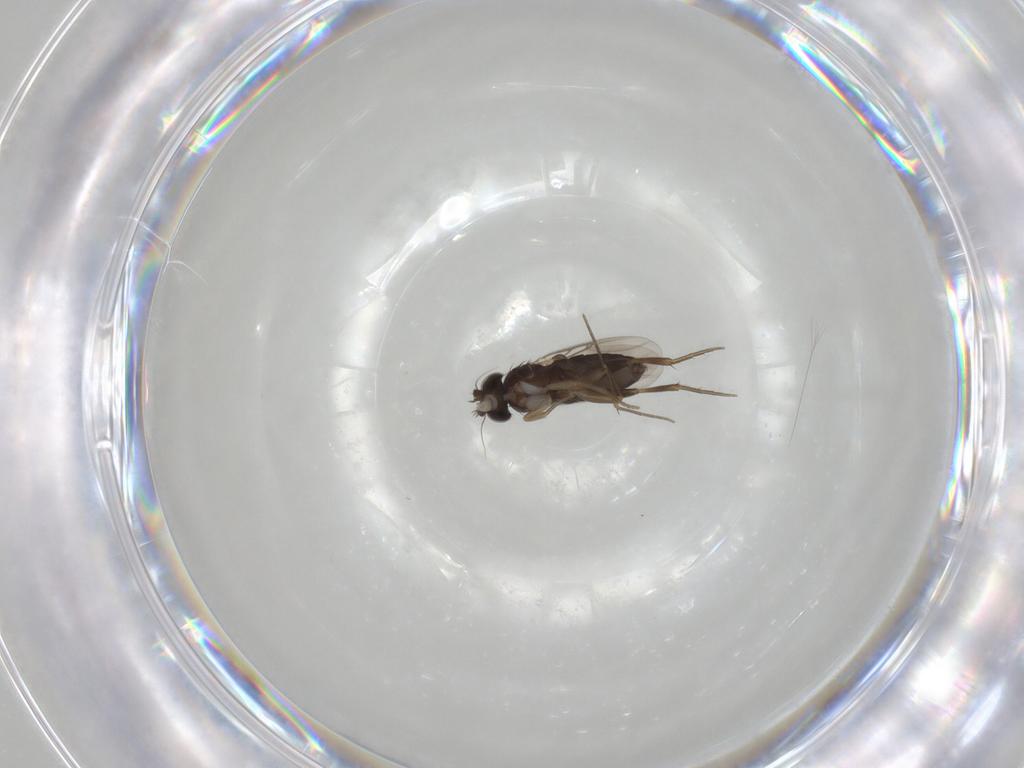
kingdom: Animalia
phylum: Arthropoda
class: Insecta
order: Diptera
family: Phoridae
